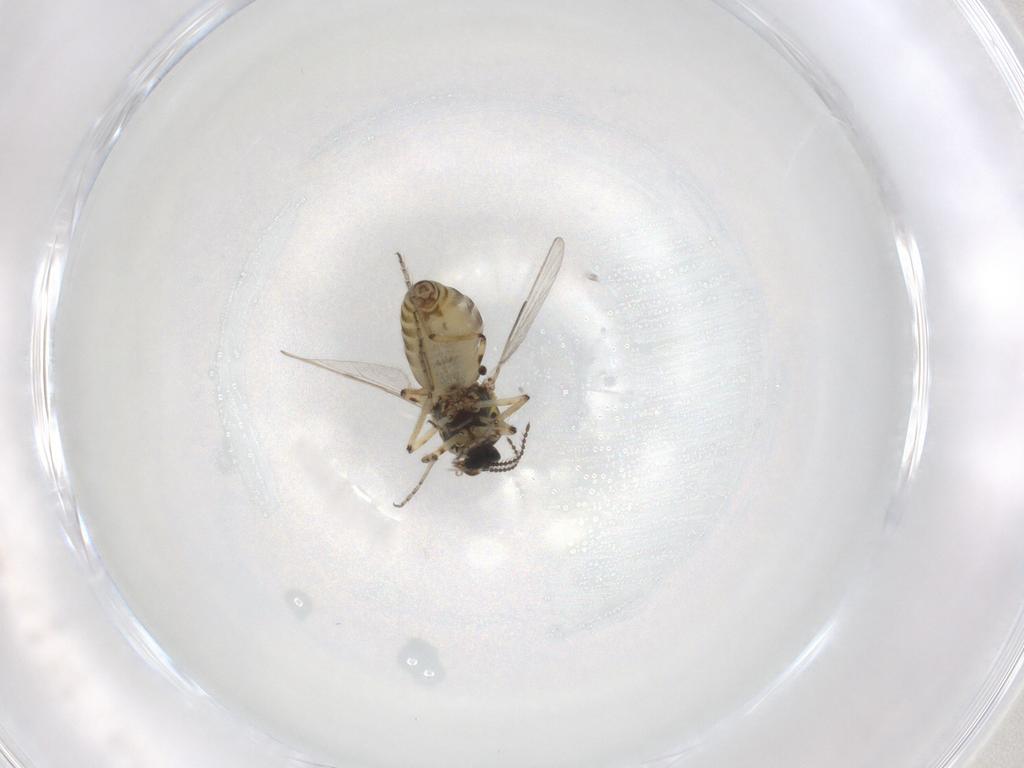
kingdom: Animalia
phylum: Arthropoda
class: Insecta
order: Diptera
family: Ceratopogonidae
